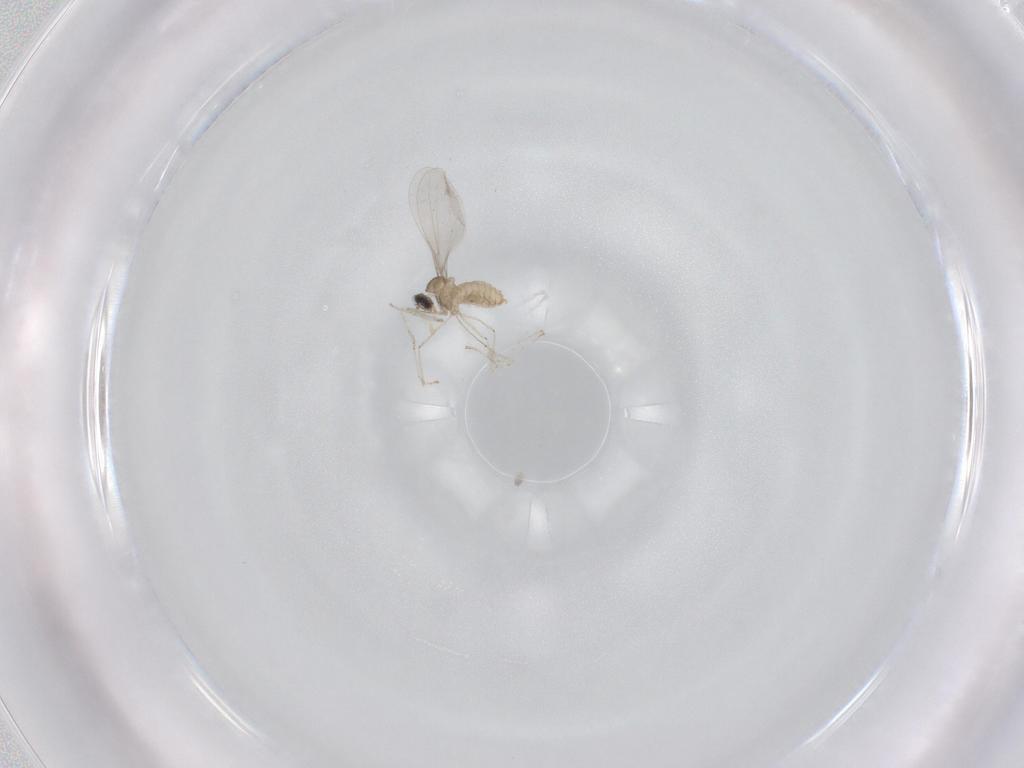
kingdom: Animalia
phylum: Arthropoda
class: Insecta
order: Diptera
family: Cecidomyiidae
